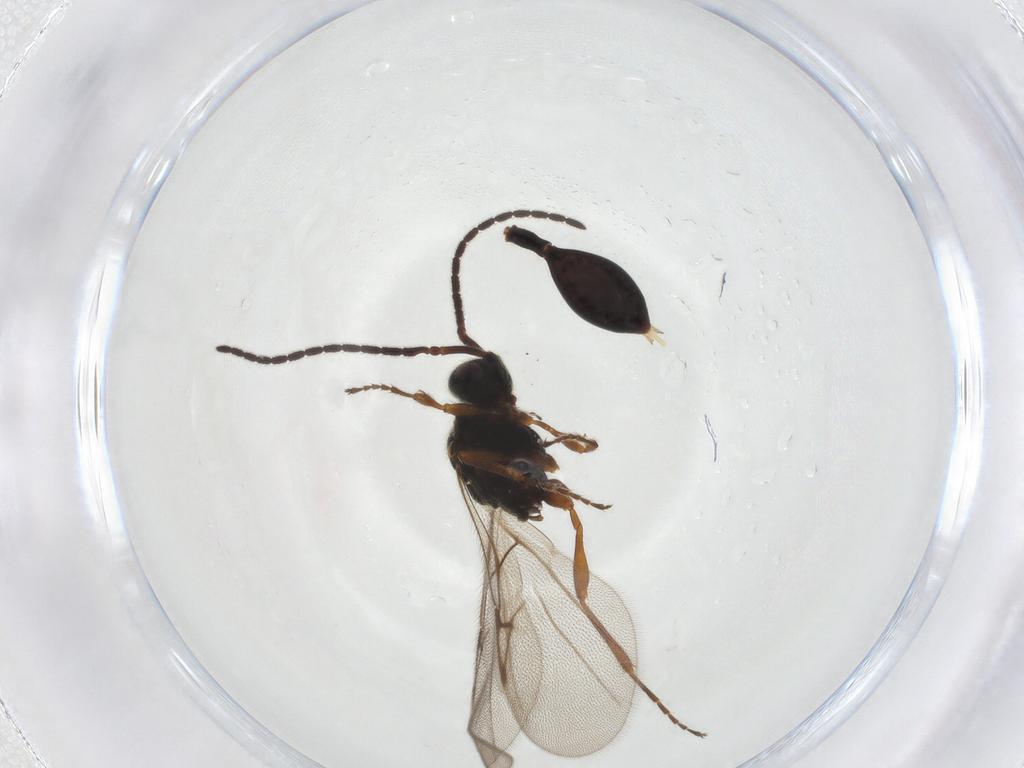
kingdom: Animalia
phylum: Arthropoda
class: Insecta
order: Hymenoptera
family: Diapriidae
